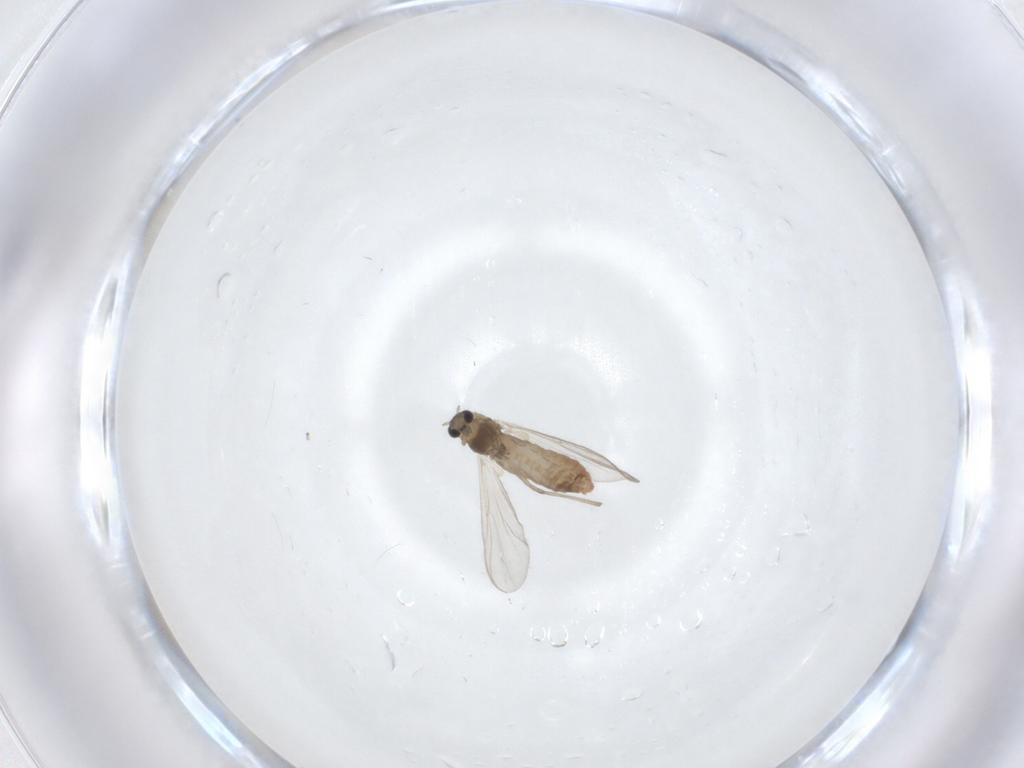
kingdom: Animalia
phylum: Arthropoda
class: Insecta
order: Diptera
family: Chironomidae
